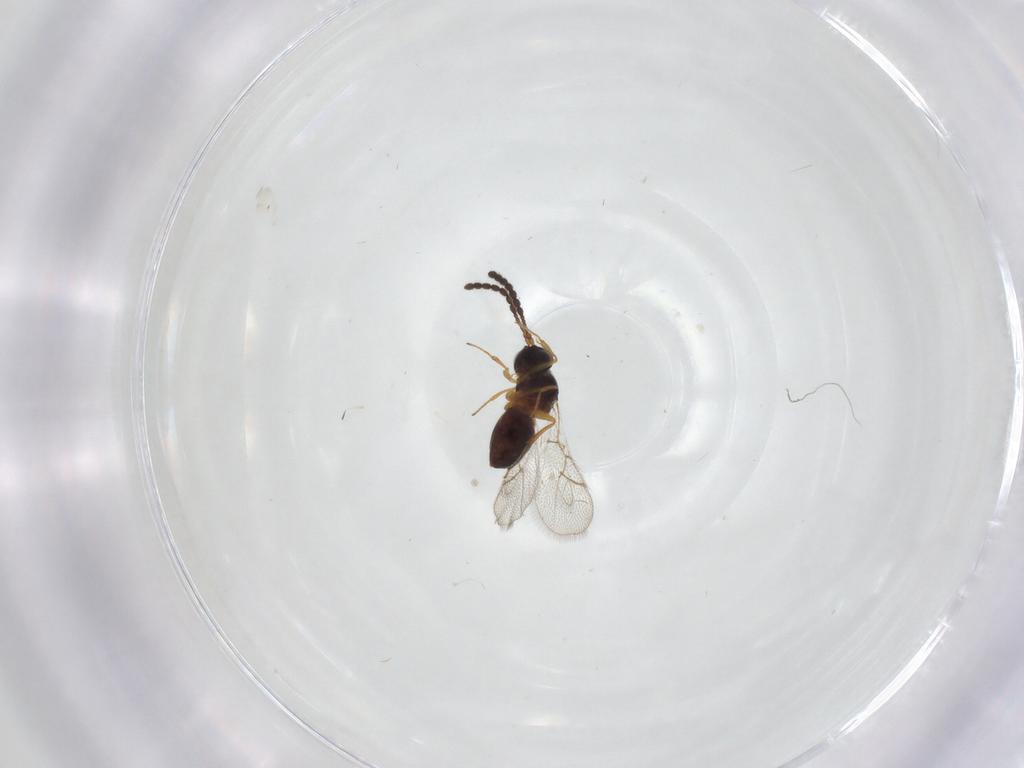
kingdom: Animalia
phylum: Arthropoda
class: Insecta
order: Hymenoptera
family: Figitidae
